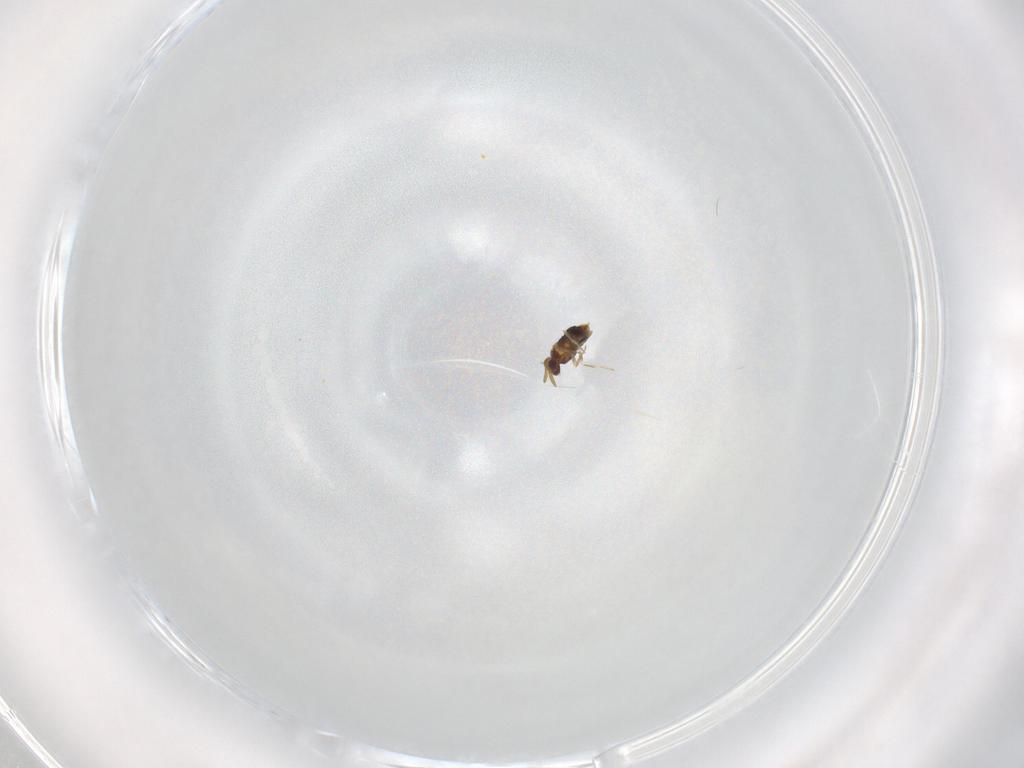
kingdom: Animalia
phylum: Arthropoda
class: Insecta
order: Hymenoptera
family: Aphelinidae
